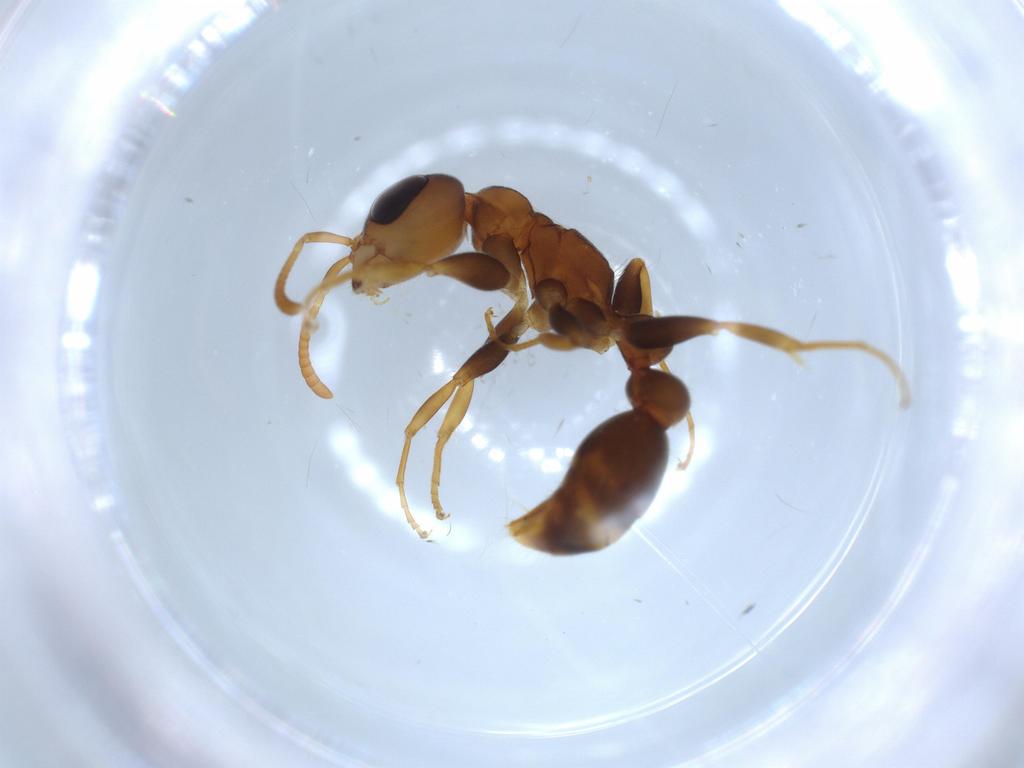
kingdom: Animalia
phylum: Arthropoda
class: Insecta
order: Hymenoptera
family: Formicidae
